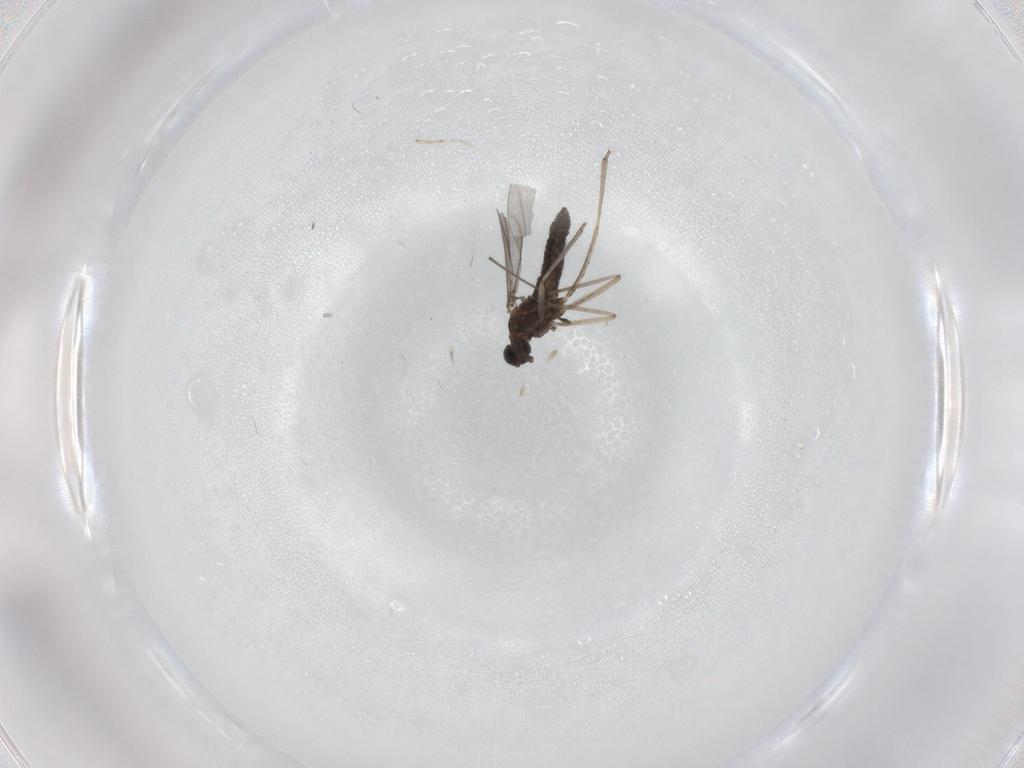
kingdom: Animalia
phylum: Arthropoda
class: Insecta
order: Diptera
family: Cecidomyiidae
